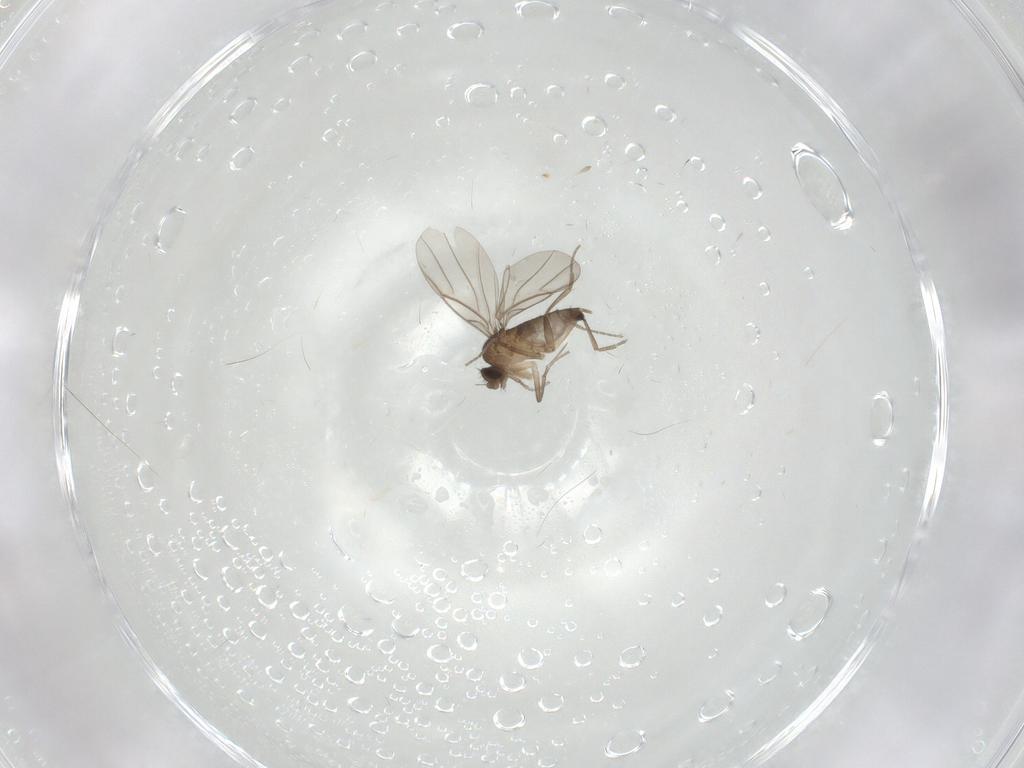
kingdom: Animalia
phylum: Arthropoda
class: Insecta
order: Diptera
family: Phoridae
